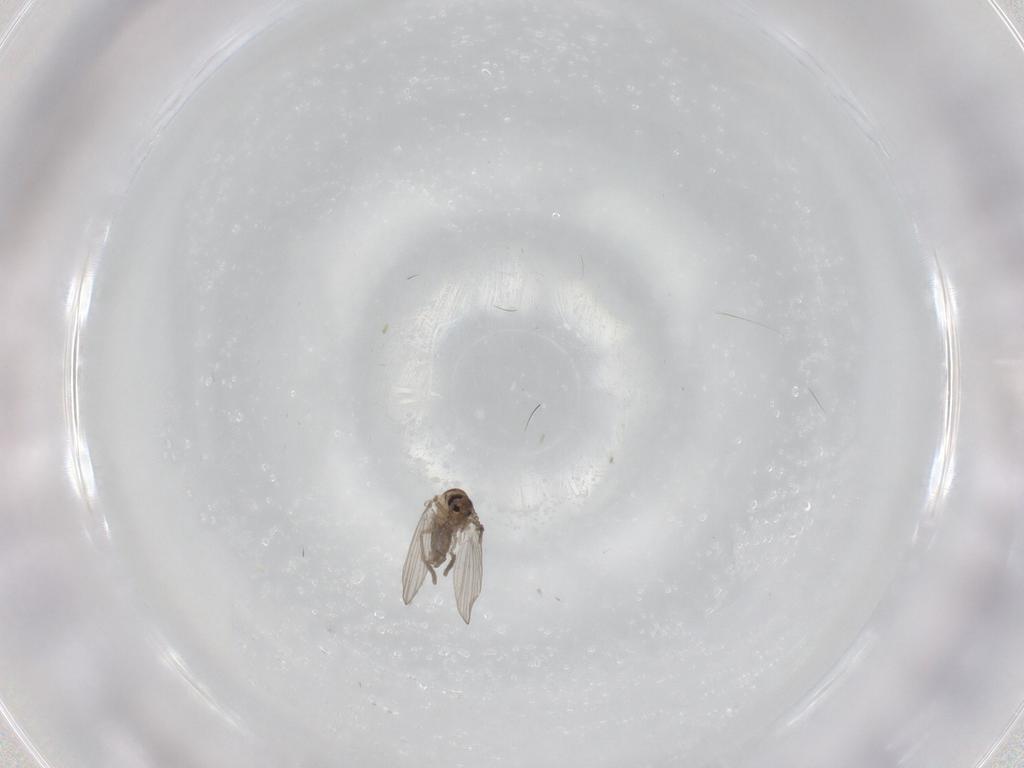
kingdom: Animalia
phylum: Arthropoda
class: Insecta
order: Diptera
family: Psychodidae
